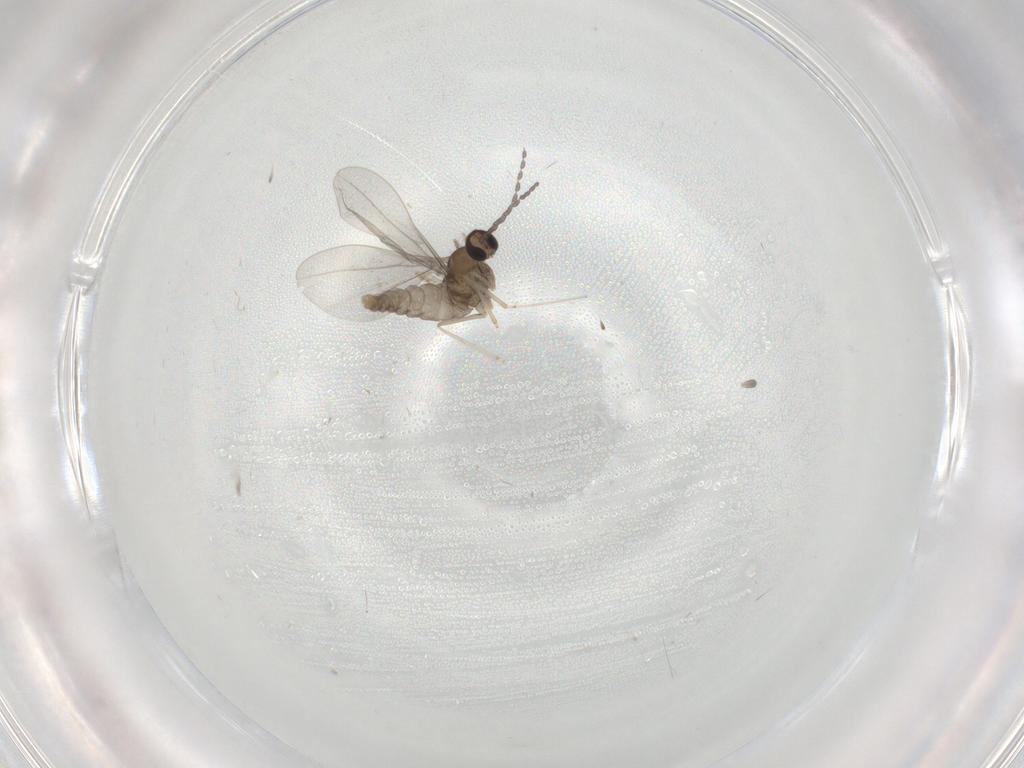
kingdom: Animalia
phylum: Arthropoda
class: Insecta
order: Diptera
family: Cecidomyiidae
